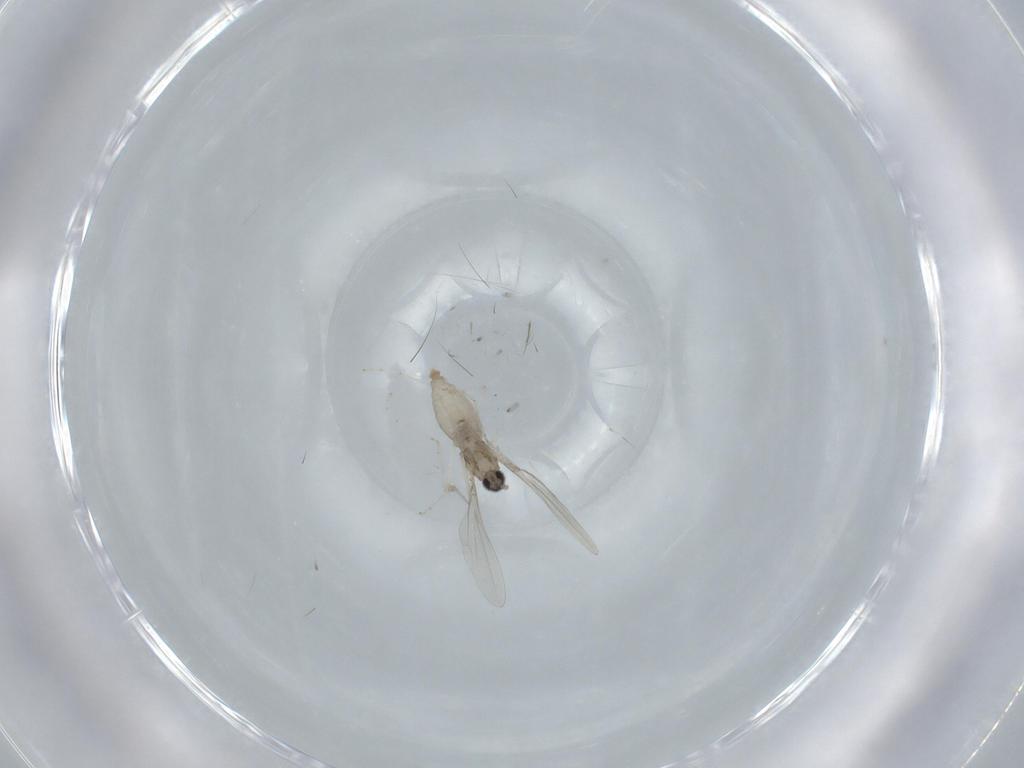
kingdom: Animalia
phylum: Arthropoda
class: Insecta
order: Diptera
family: Cecidomyiidae
